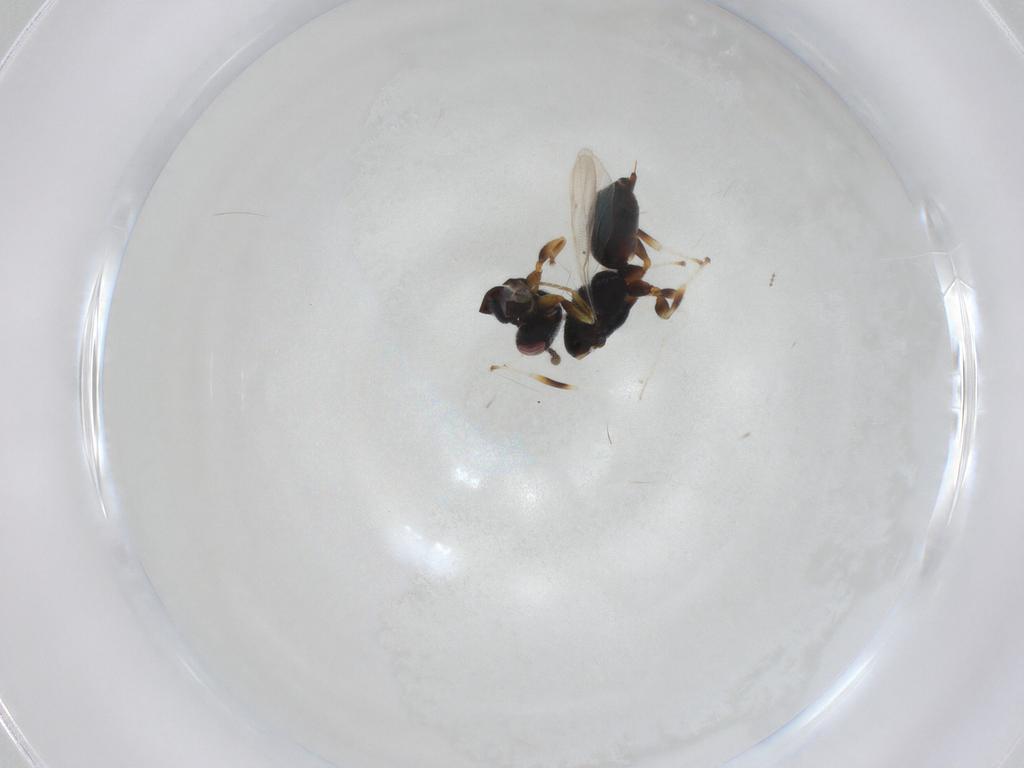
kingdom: Animalia
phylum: Arthropoda
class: Insecta
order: Hymenoptera
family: Eurytomidae
